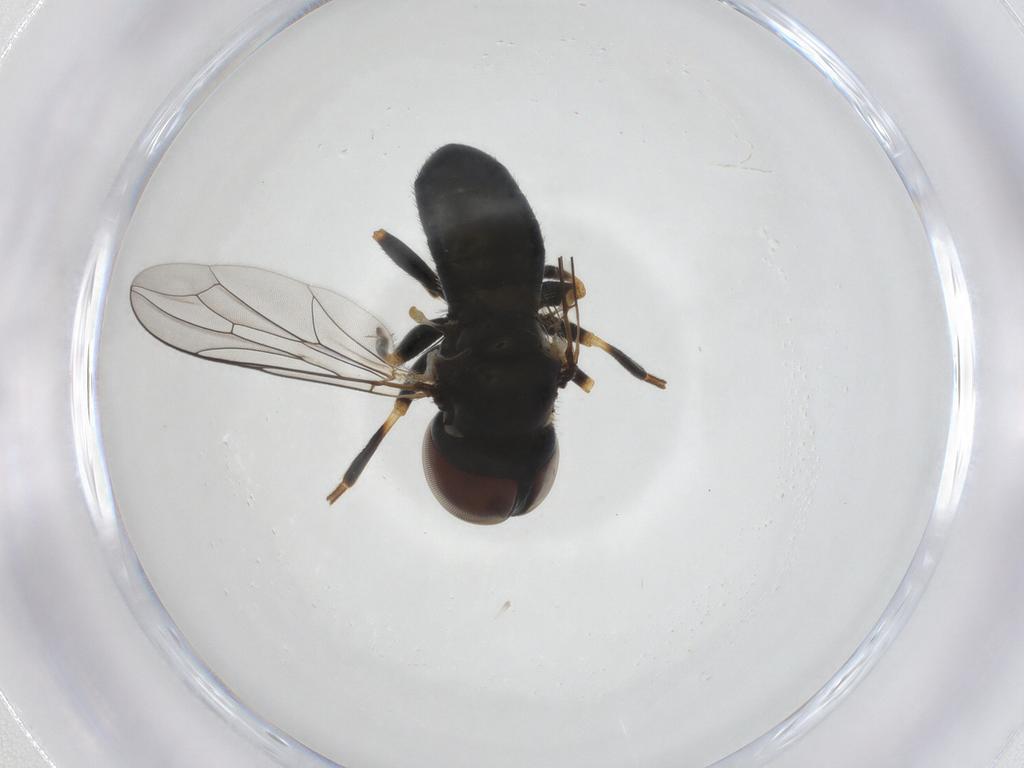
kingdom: Animalia
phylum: Arthropoda
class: Insecta
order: Diptera
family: Pipunculidae
